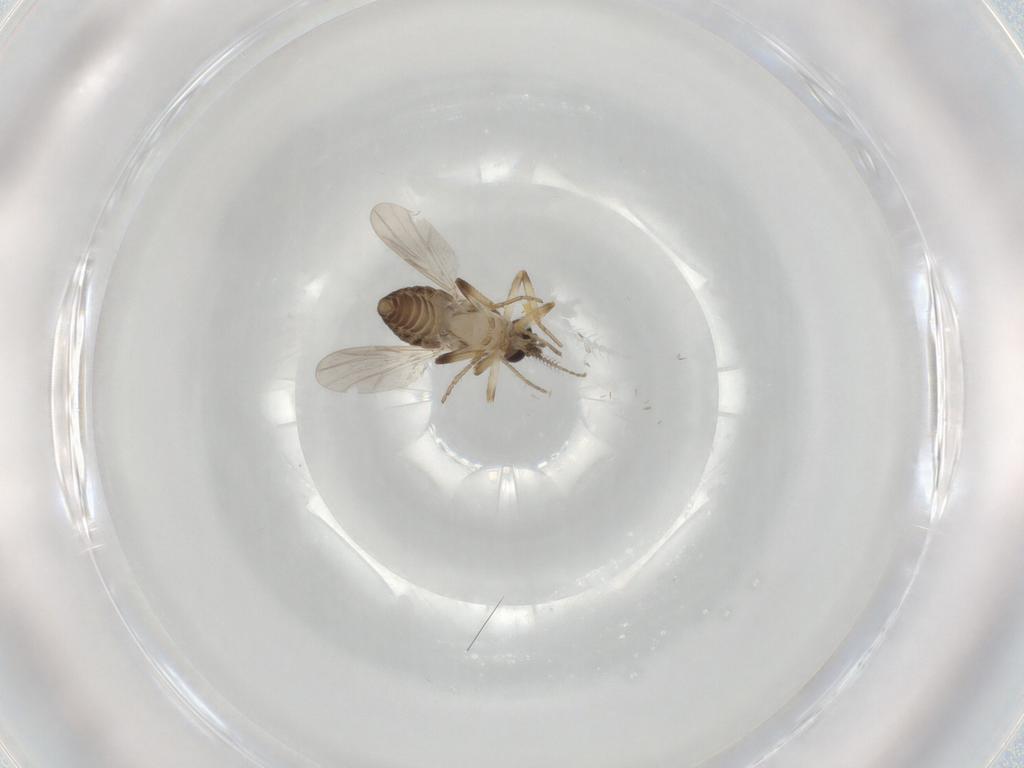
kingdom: Animalia
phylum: Arthropoda
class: Insecta
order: Diptera
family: Ceratopogonidae
